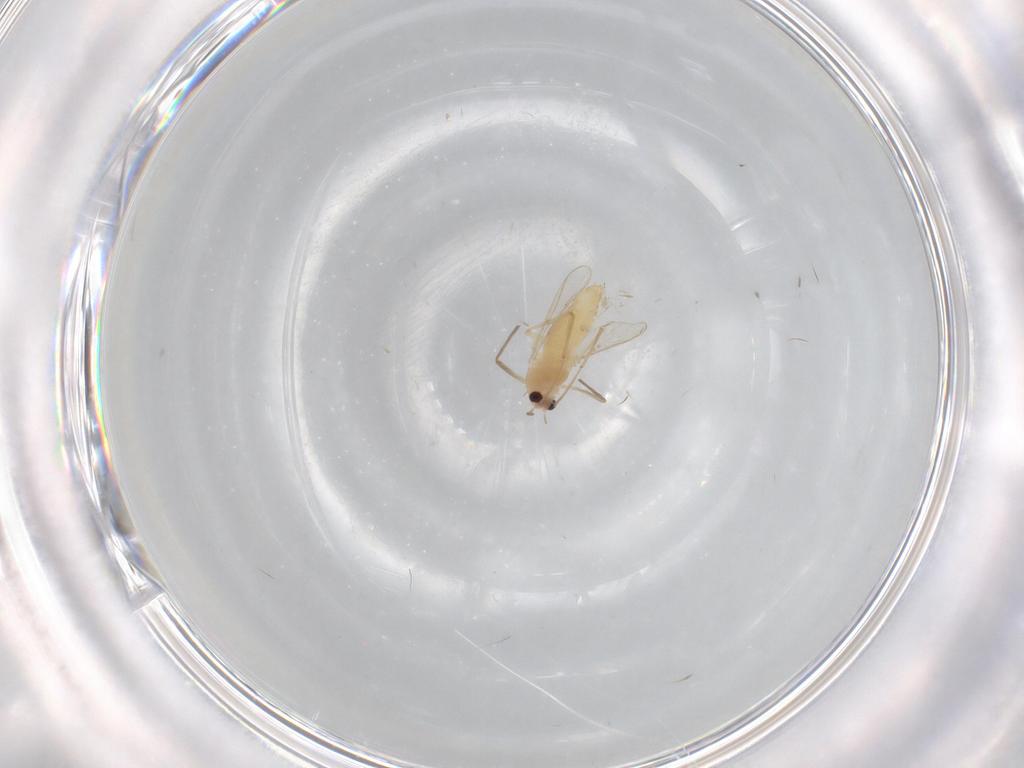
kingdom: Animalia
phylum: Arthropoda
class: Insecta
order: Diptera
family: Chironomidae
